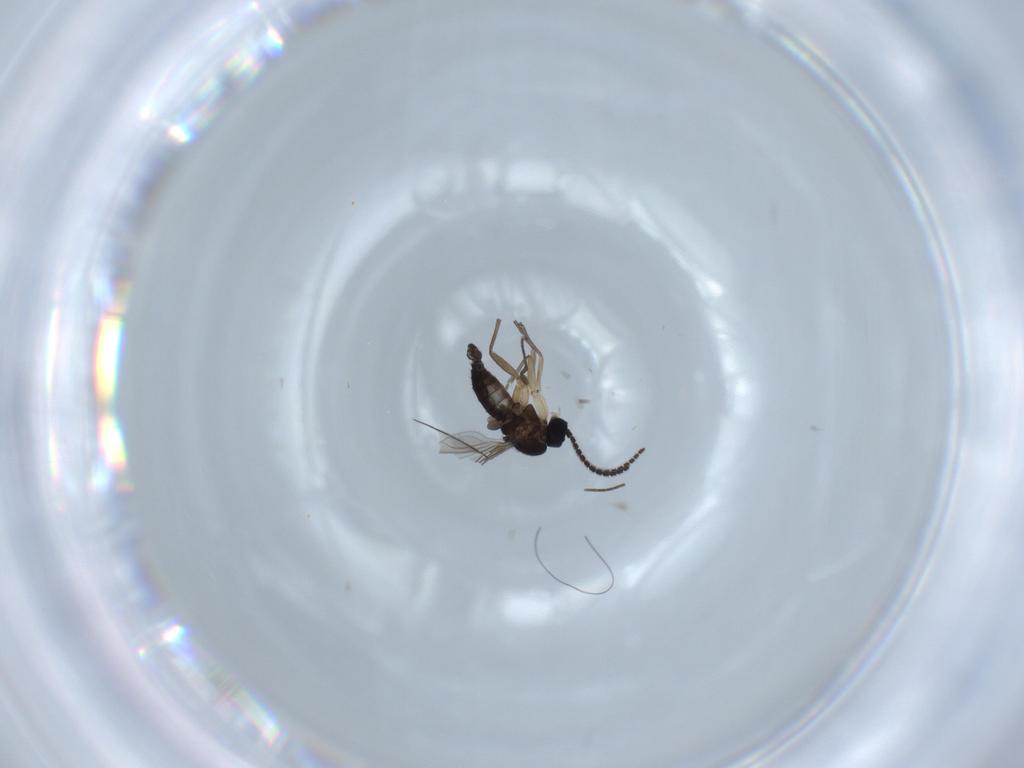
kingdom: Animalia
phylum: Arthropoda
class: Insecta
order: Diptera
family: Sciaridae
